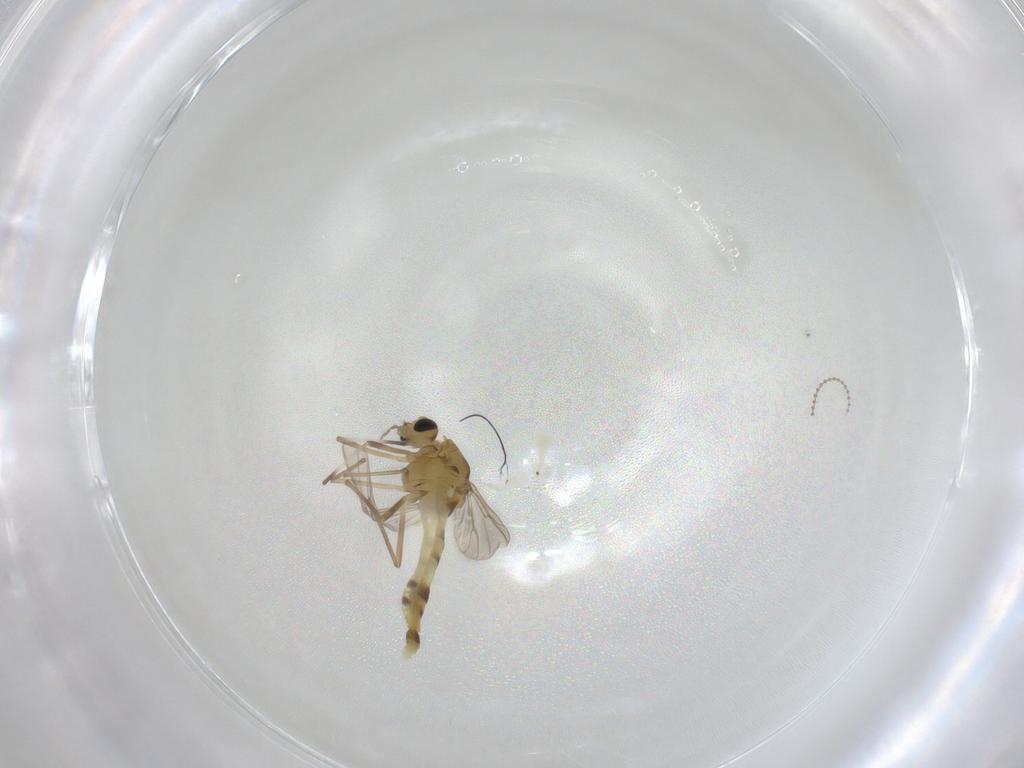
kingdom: Animalia
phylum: Arthropoda
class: Insecta
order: Diptera
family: Chironomidae
